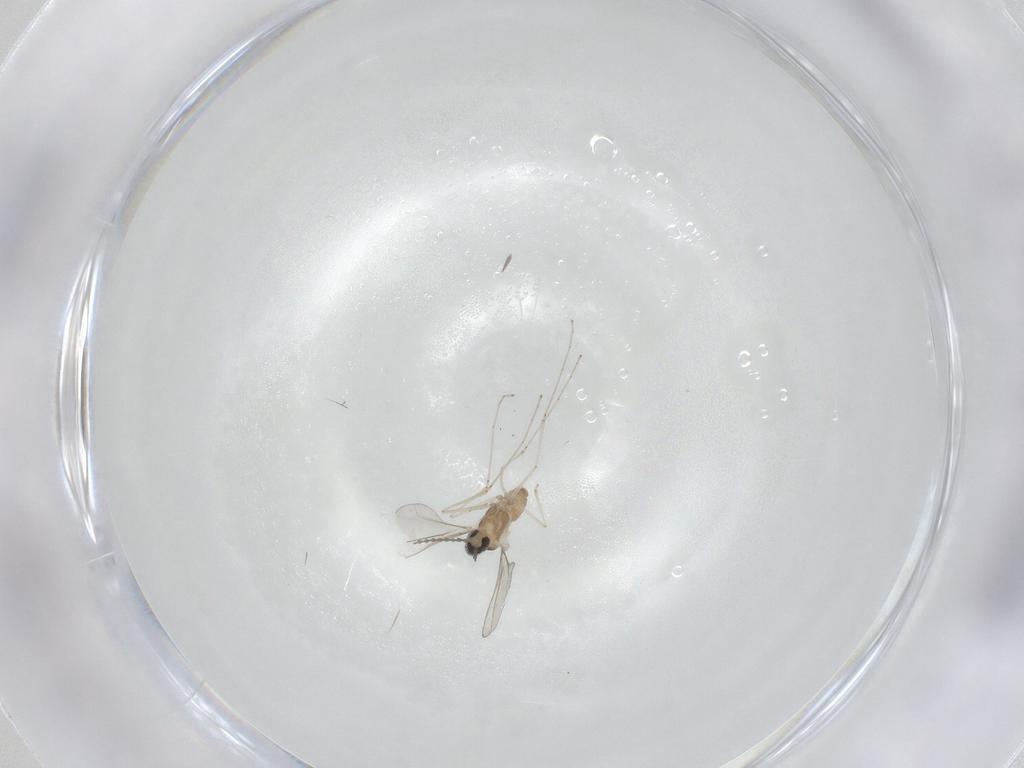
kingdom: Animalia
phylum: Arthropoda
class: Insecta
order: Diptera
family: Cecidomyiidae
